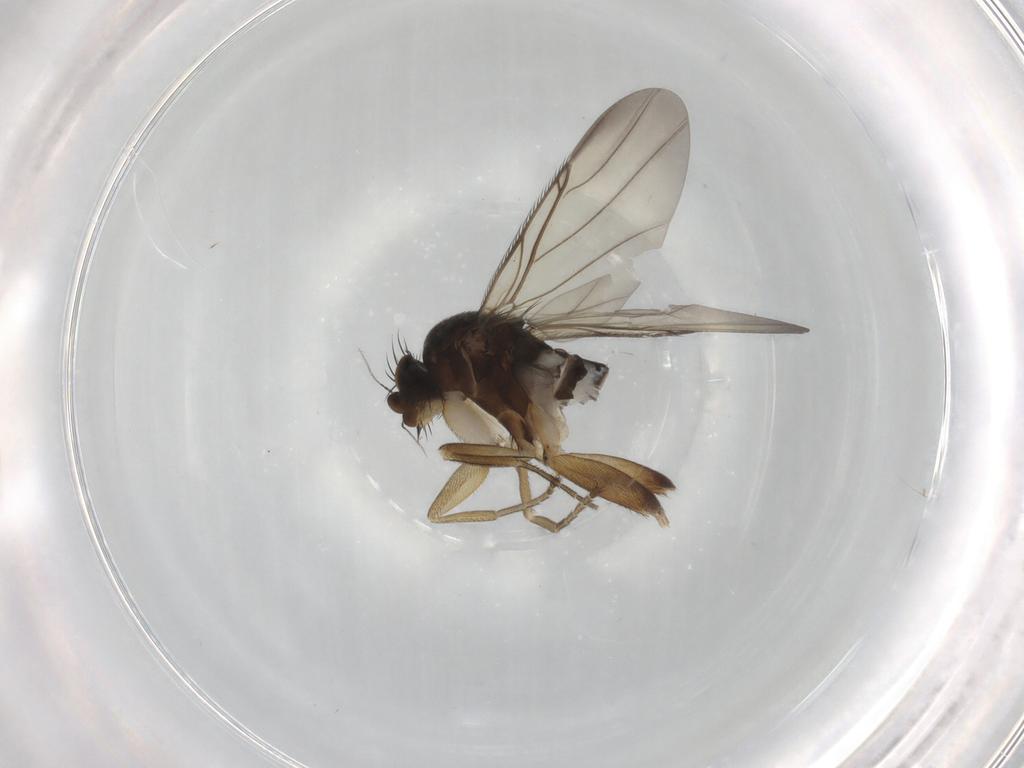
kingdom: Animalia
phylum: Arthropoda
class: Insecta
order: Diptera
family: Phoridae
